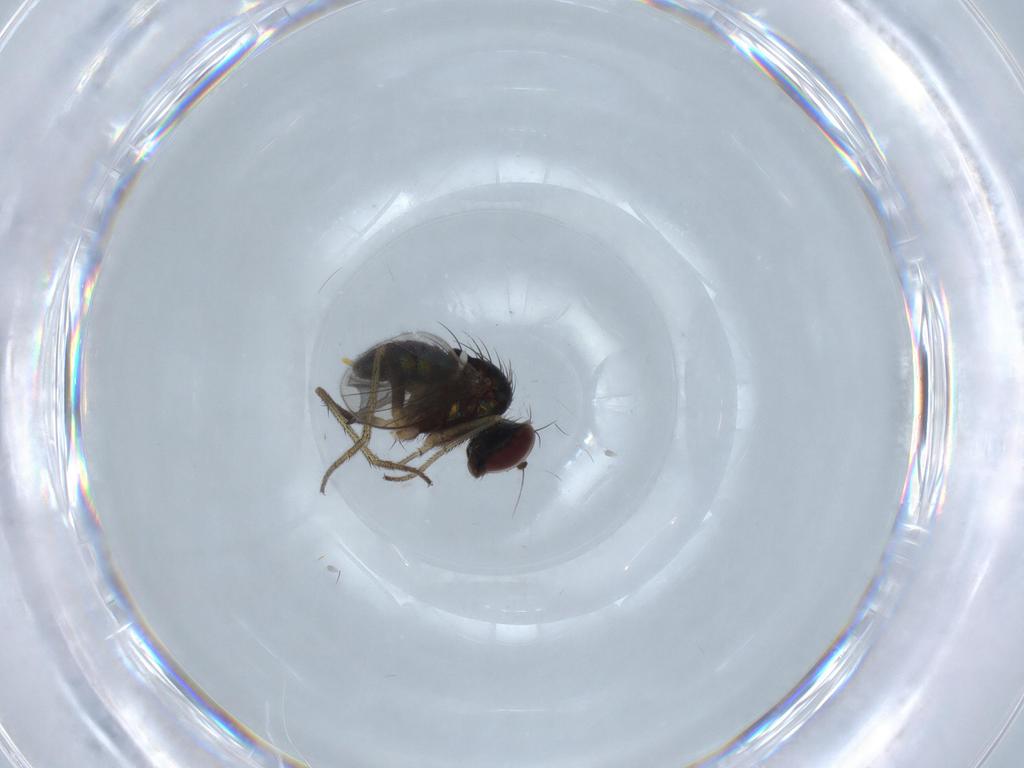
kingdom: Animalia
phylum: Arthropoda
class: Insecta
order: Diptera
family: Dolichopodidae
